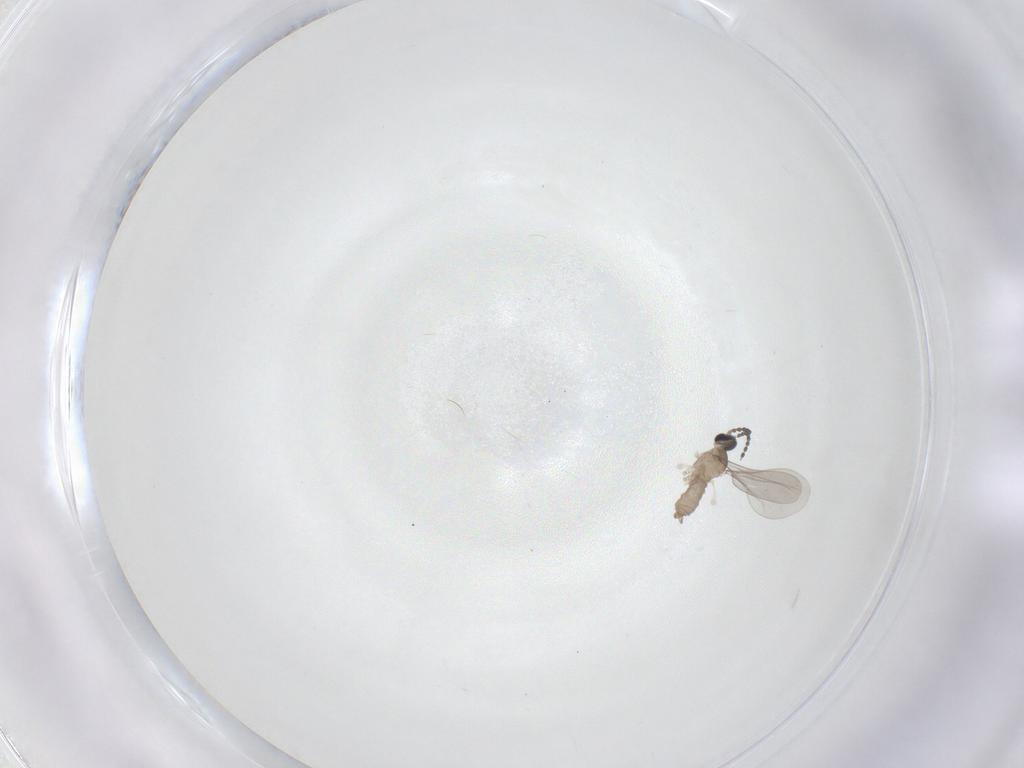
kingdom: Animalia
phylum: Arthropoda
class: Insecta
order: Diptera
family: Cecidomyiidae
